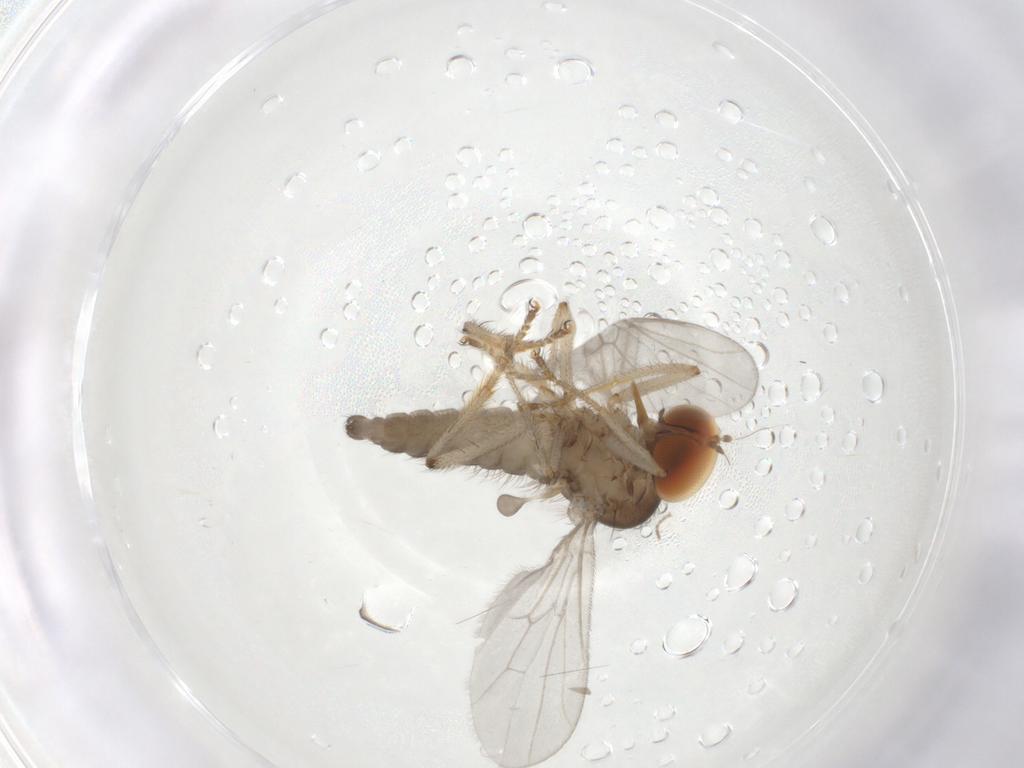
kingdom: Animalia
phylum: Arthropoda
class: Insecta
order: Diptera
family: Hybotidae
